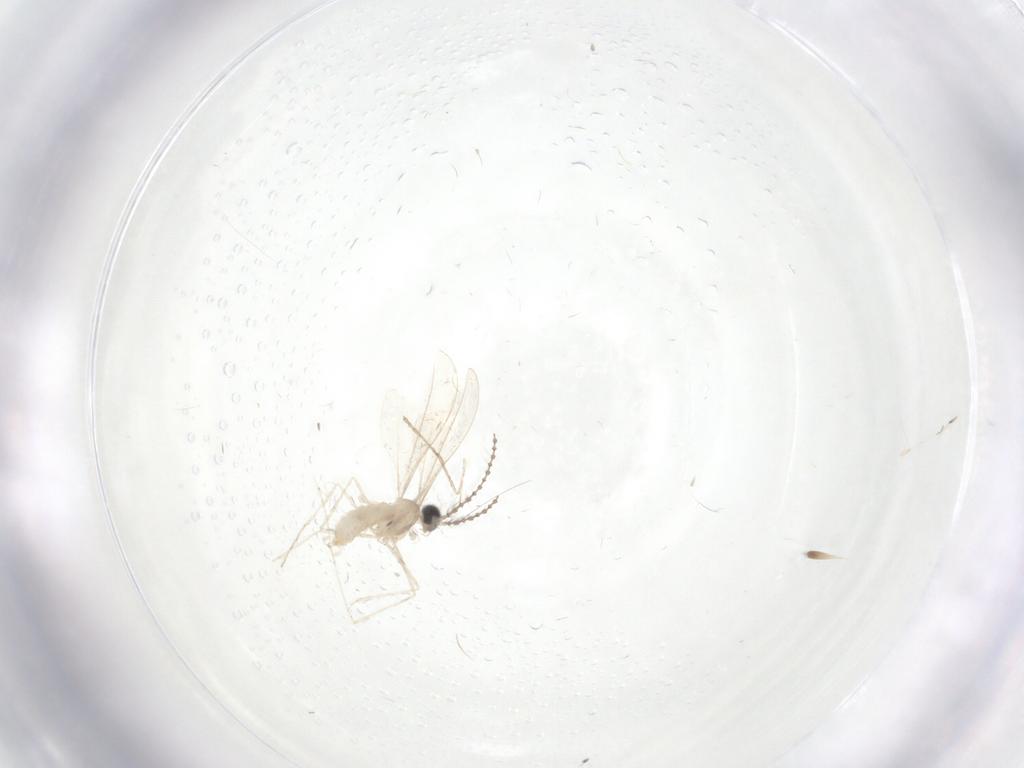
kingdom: Animalia
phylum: Arthropoda
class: Insecta
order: Diptera
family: Cecidomyiidae
